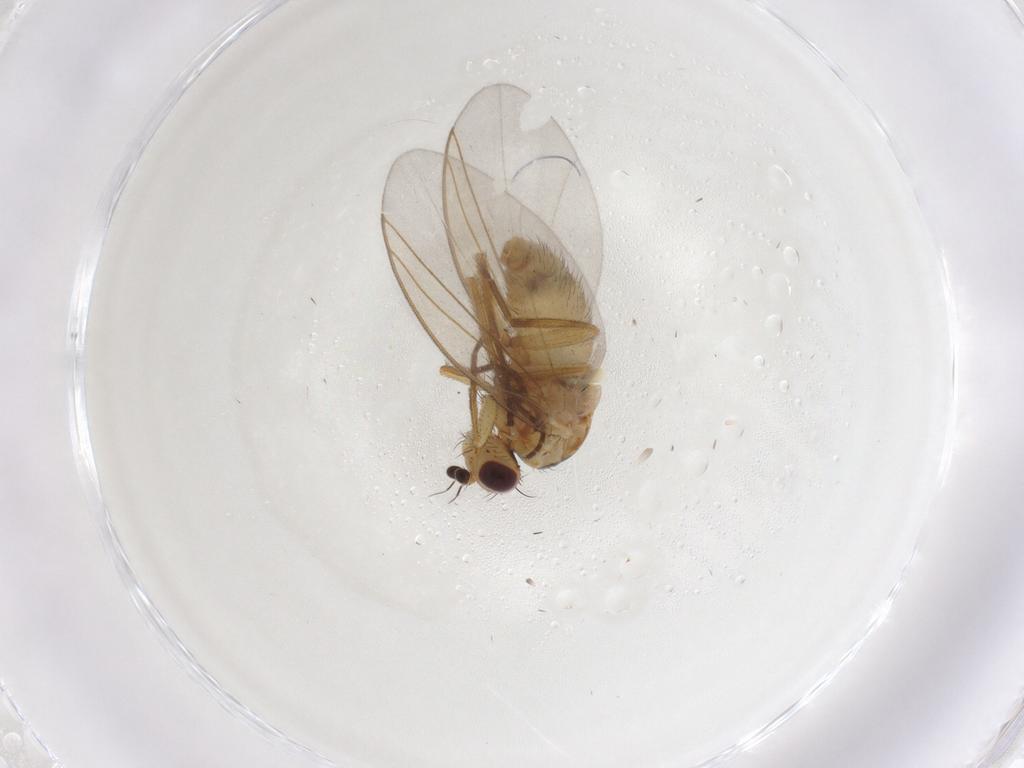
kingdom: Animalia
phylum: Arthropoda
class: Insecta
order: Diptera
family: Agromyzidae
